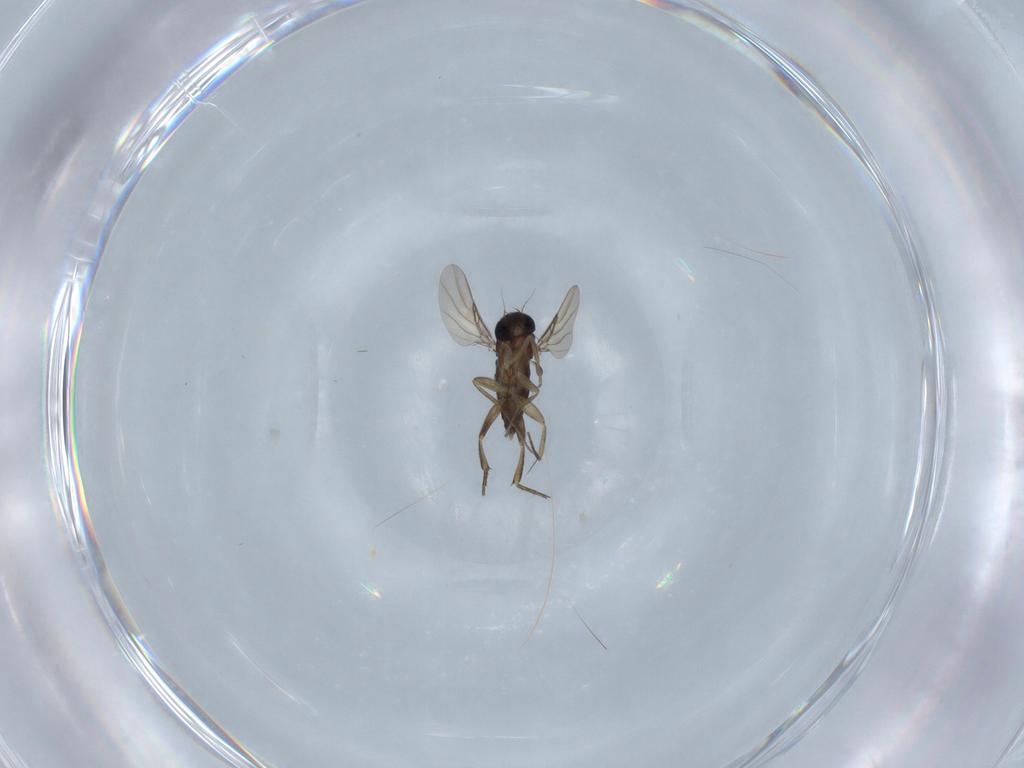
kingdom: Animalia
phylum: Arthropoda
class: Insecta
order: Diptera
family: Phoridae
